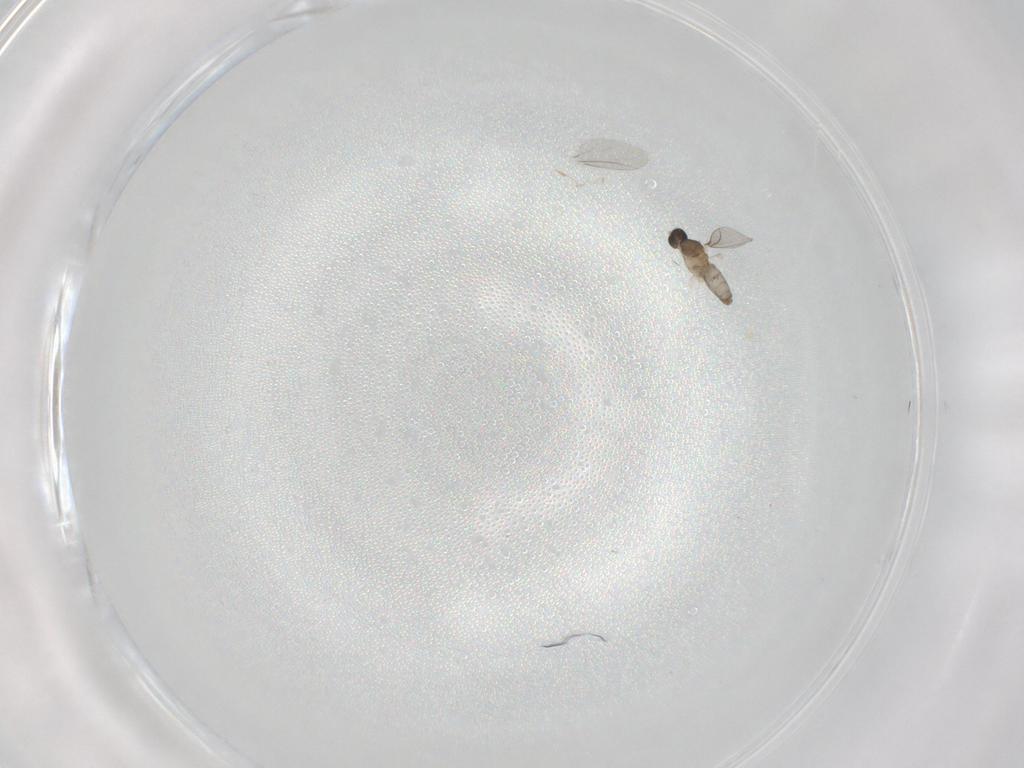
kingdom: Animalia
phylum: Arthropoda
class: Insecta
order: Diptera
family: Cecidomyiidae
